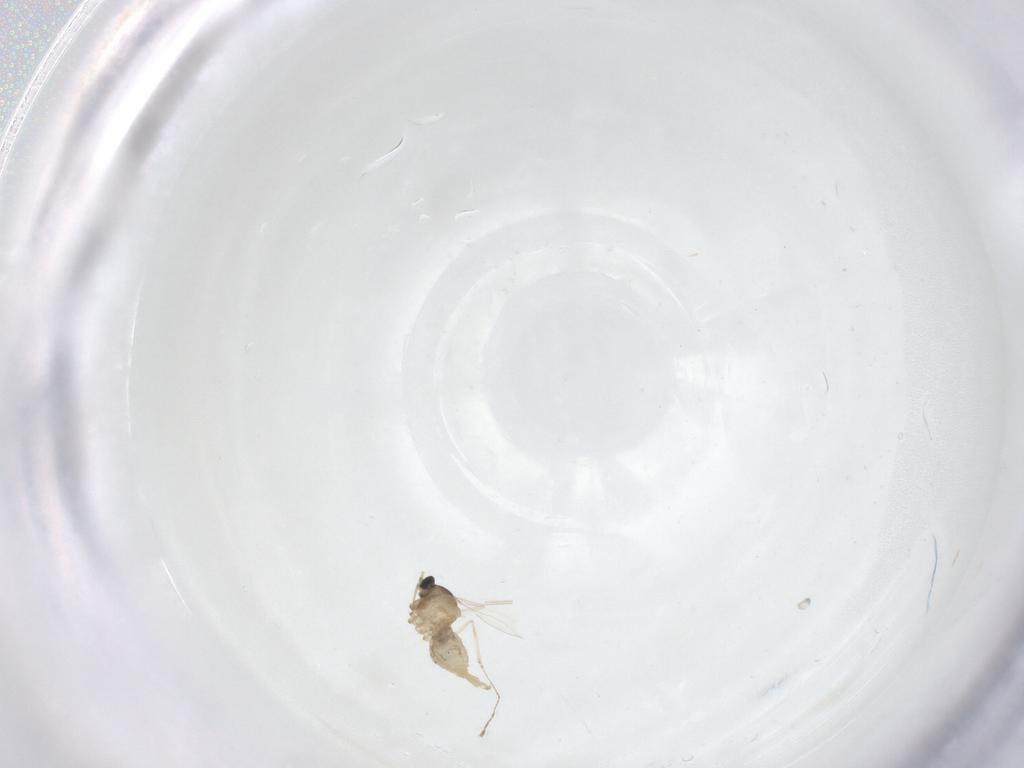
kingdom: Animalia
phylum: Arthropoda
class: Insecta
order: Diptera
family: Cecidomyiidae
